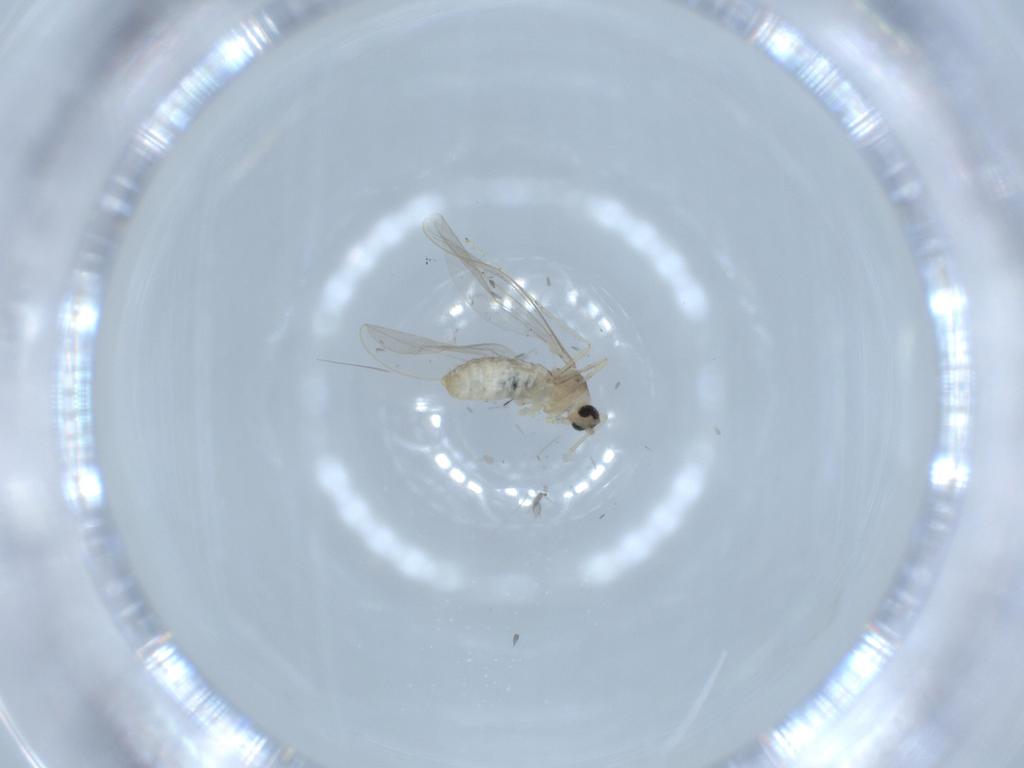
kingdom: Animalia
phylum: Arthropoda
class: Insecta
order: Diptera
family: Cecidomyiidae
